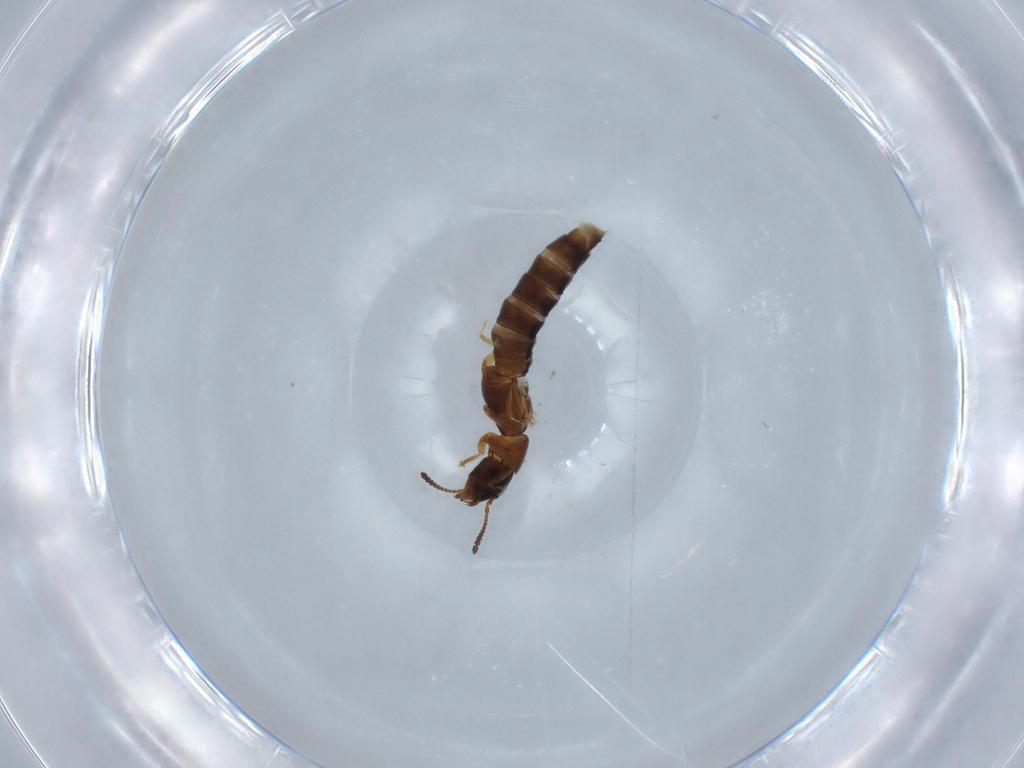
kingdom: Animalia
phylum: Arthropoda
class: Insecta
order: Coleoptera
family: Staphylinidae
